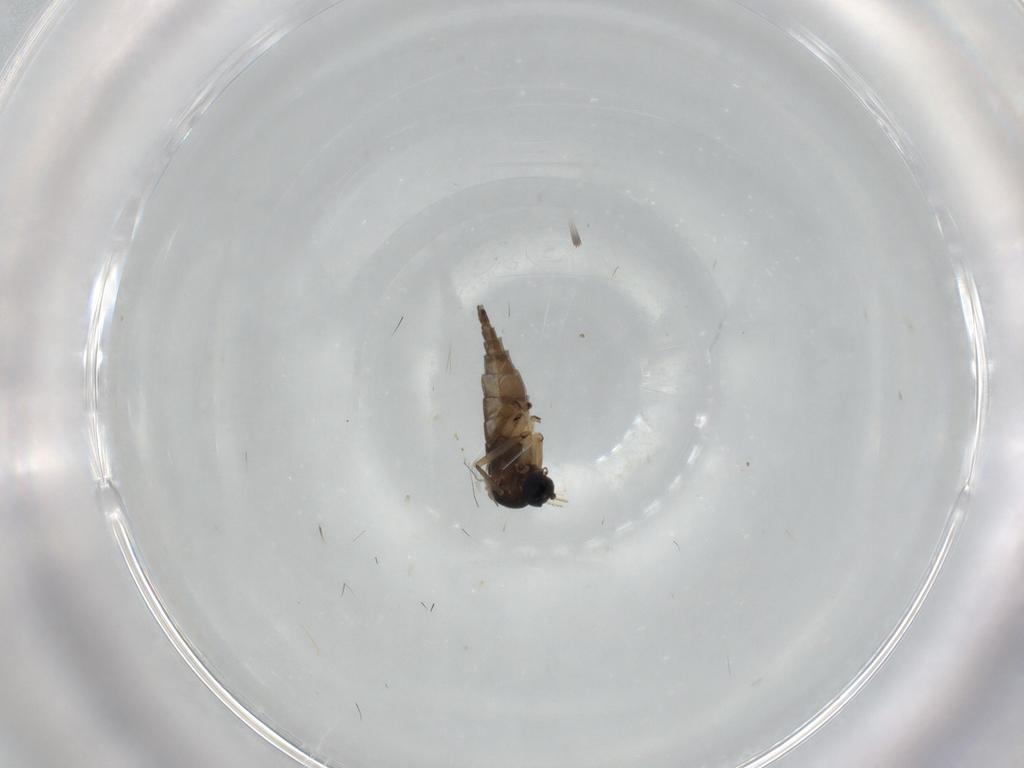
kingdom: Animalia
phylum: Arthropoda
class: Insecta
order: Diptera
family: Sciaridae
